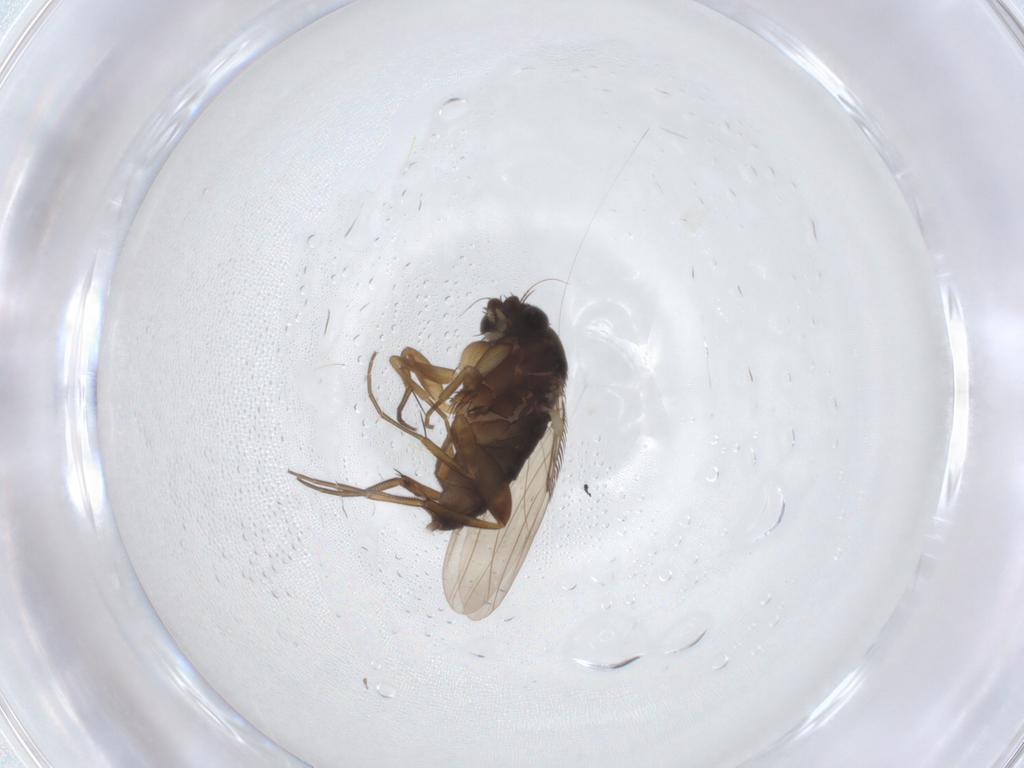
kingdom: Animalia
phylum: Arthropoda
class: Insecta
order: Diptera
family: Phoridae
